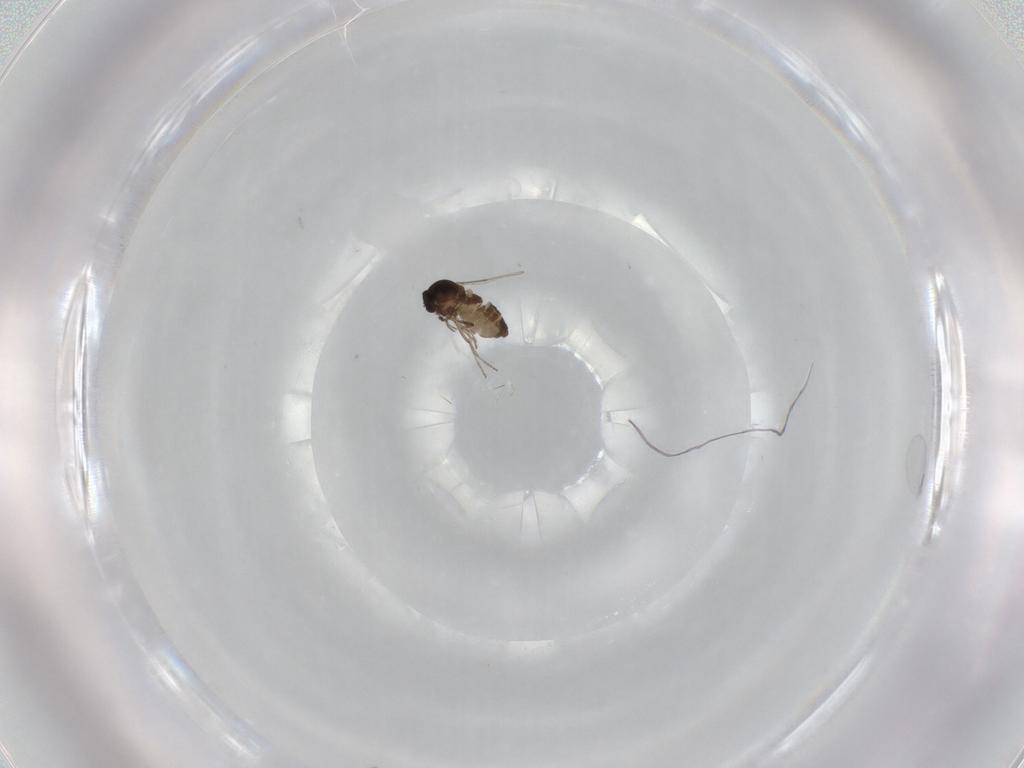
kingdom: Animalia
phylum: Arthropoda
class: Insecta
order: Diptera
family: Ceratopogonidae
